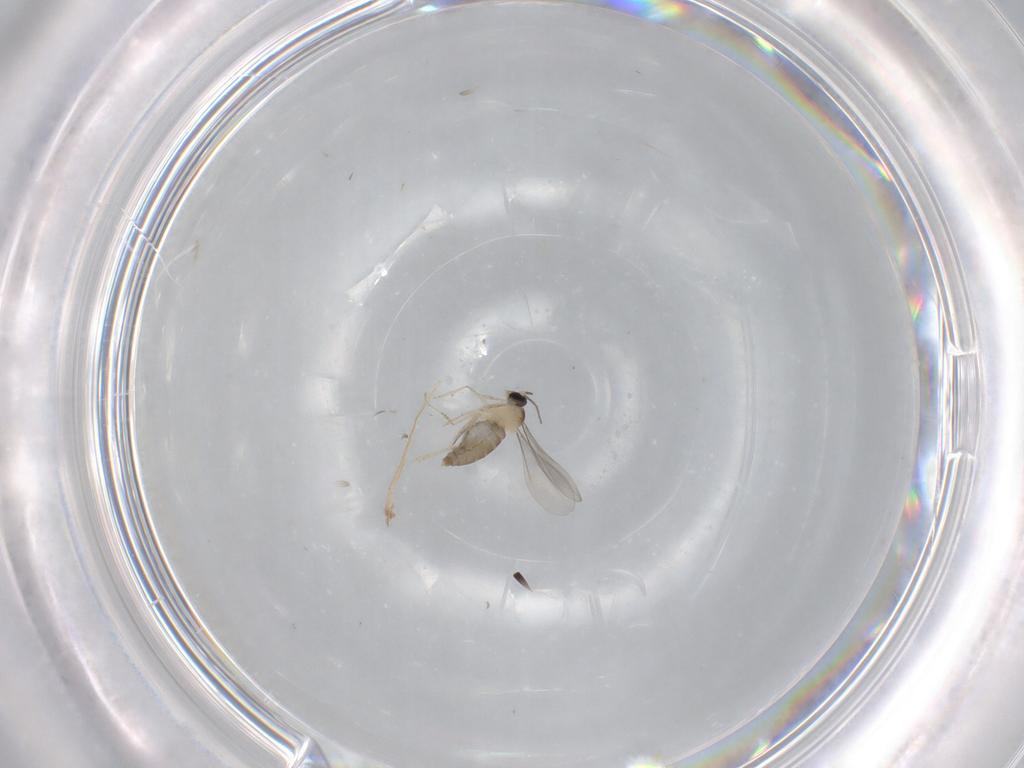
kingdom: Animalia
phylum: Arthropoda
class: Insecta
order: Diptera
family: Cecidomyiidae
